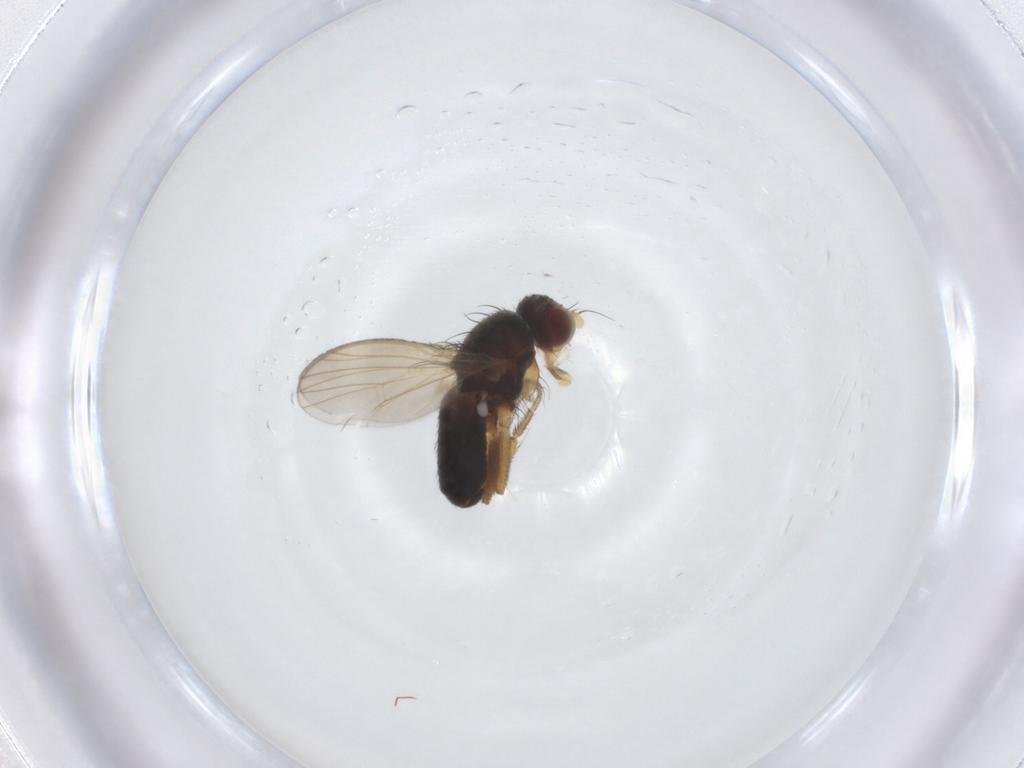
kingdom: Animalia
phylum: Arthropoda
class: Insecta
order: Diptera
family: Heleomyzidae
